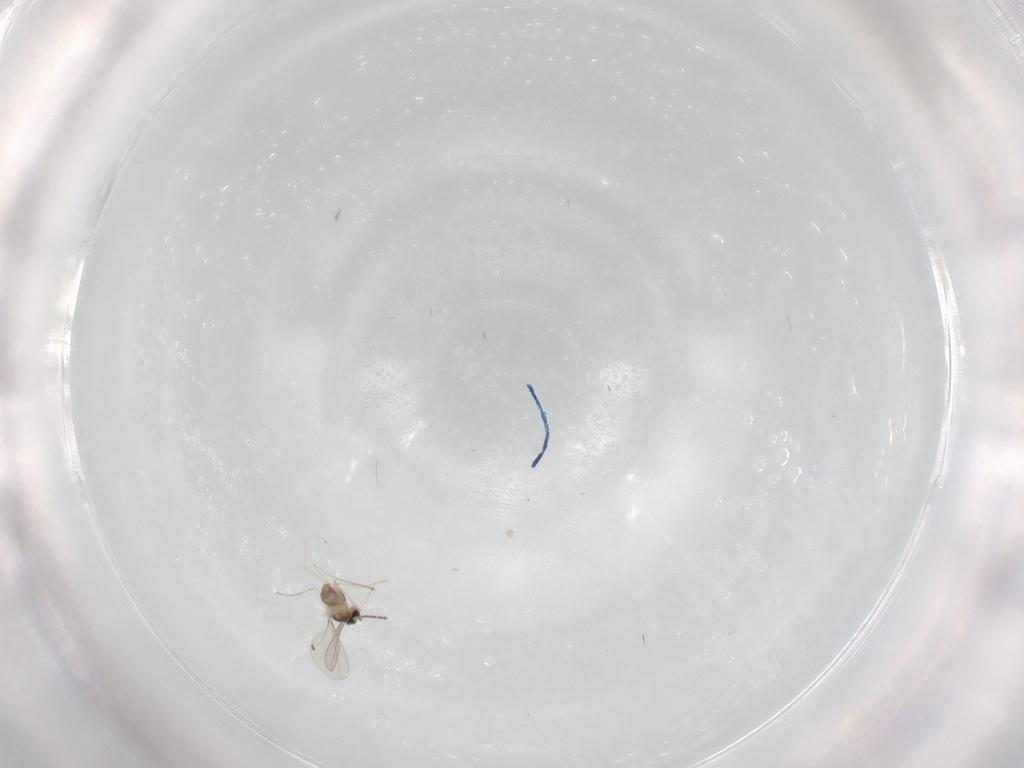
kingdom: Animalia
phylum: Arthropoda
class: Insecta
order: Diptera
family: Cecidomyiidae
